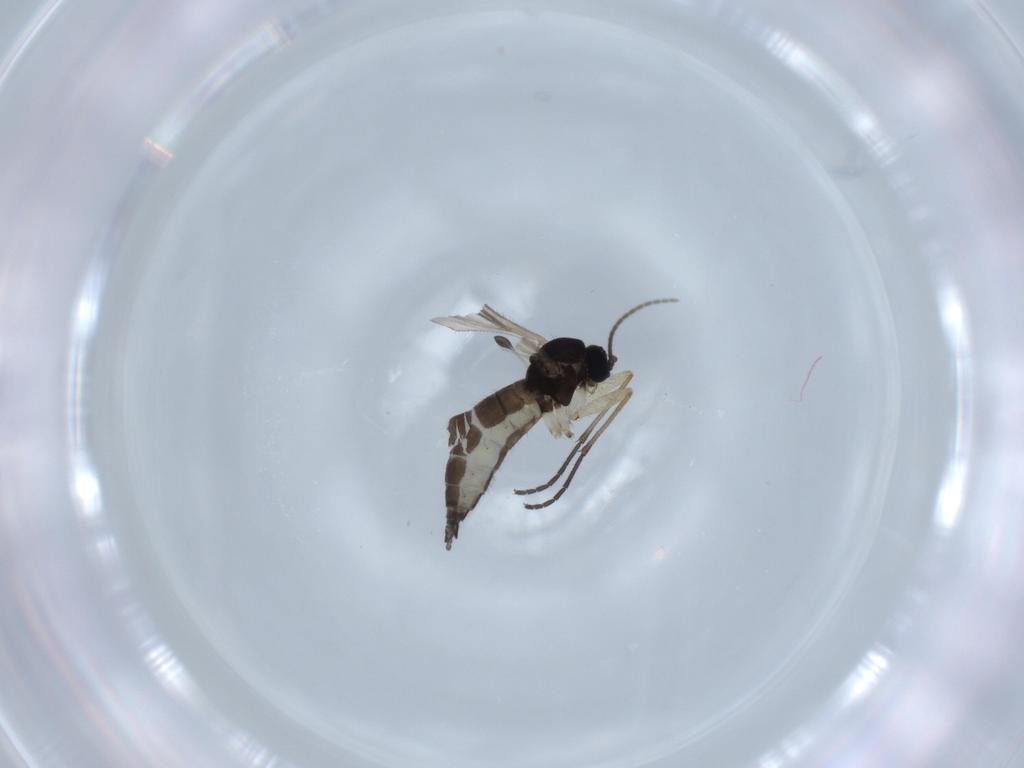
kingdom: Animalia
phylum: Arthropoda
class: Insecta
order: Diptera
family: Sciaridae
